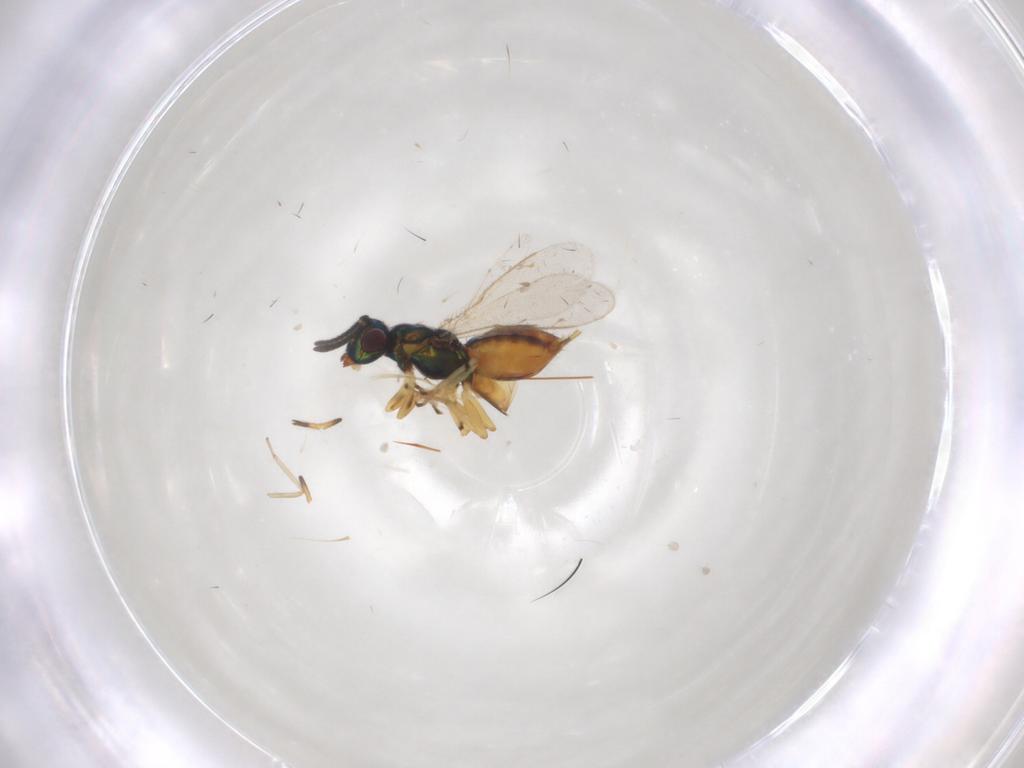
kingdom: Animalia
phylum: Arthropoda
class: Insecta
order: Hymenoptera
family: Eupelmidae
